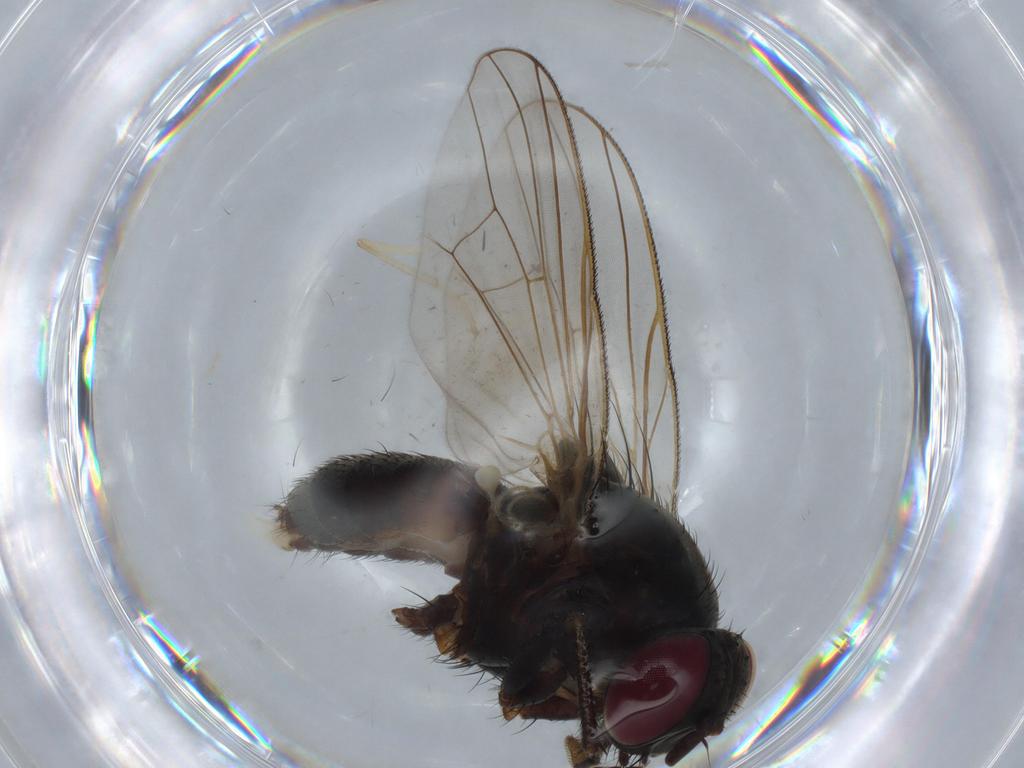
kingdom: Animalia
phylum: Arthropoda
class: Insecta
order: Diptera
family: Fannia
